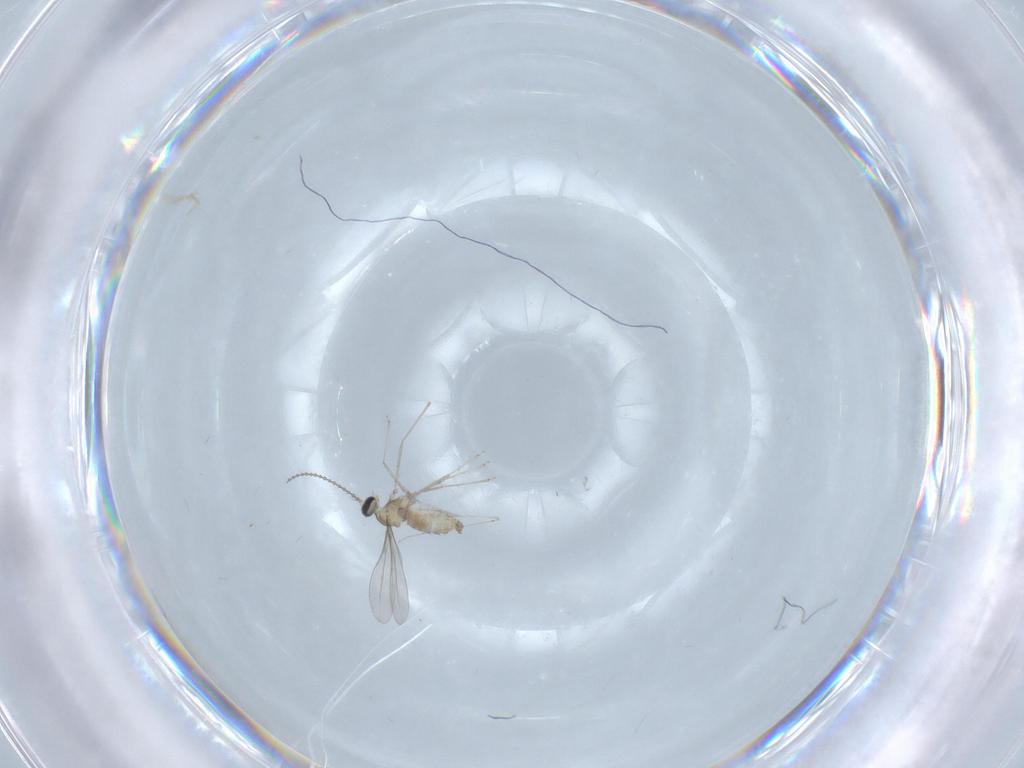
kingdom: Animalia
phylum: Arthropoda
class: Insecta
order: Diptera
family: Cecidomyiidae
